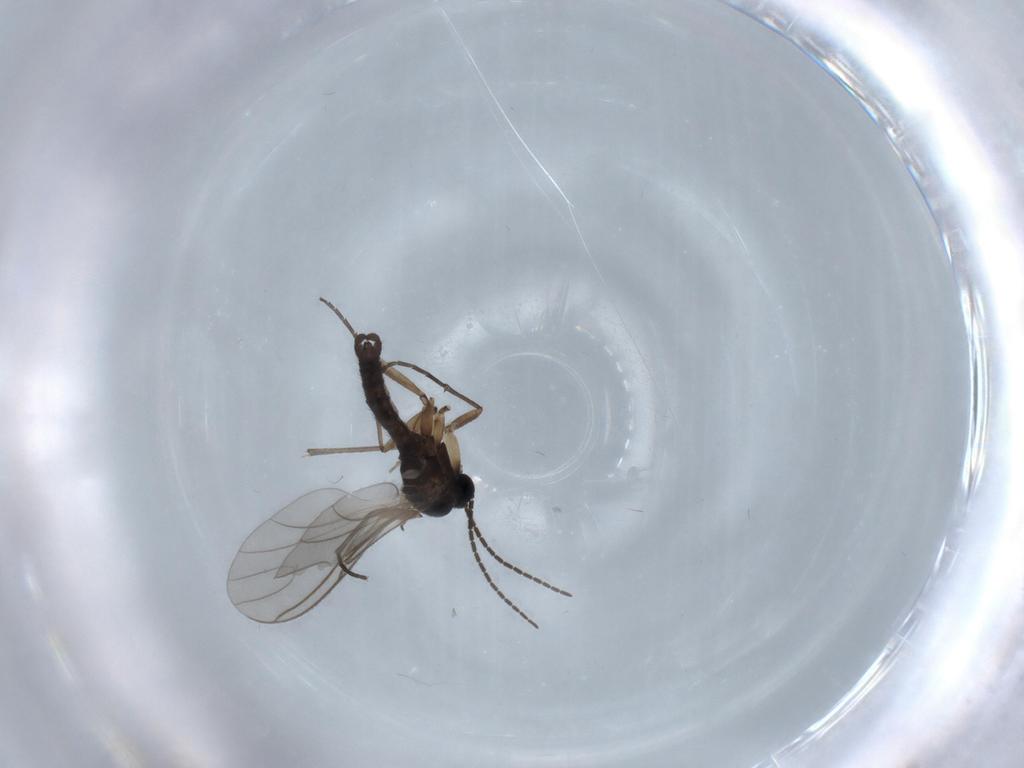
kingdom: Animalia
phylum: Arthropoda
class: Insecta
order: Diptera
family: Sciaridae
